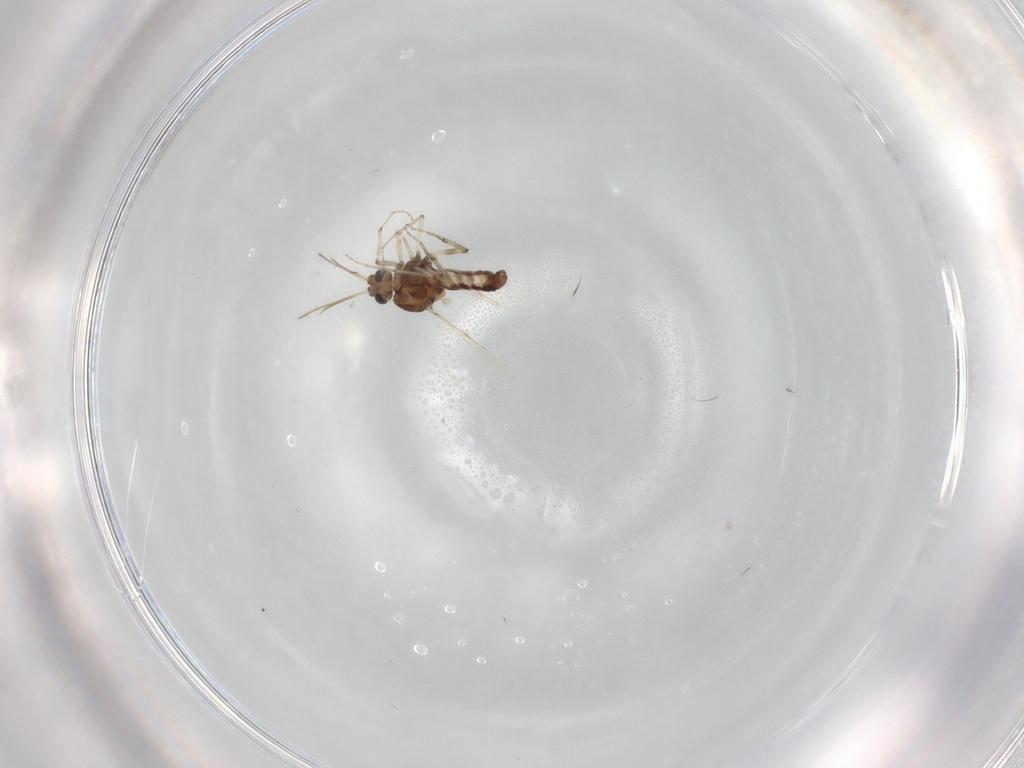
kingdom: Animalia
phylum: Arthropoda
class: Insecta
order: Diptera
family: Ceratopogonidae
